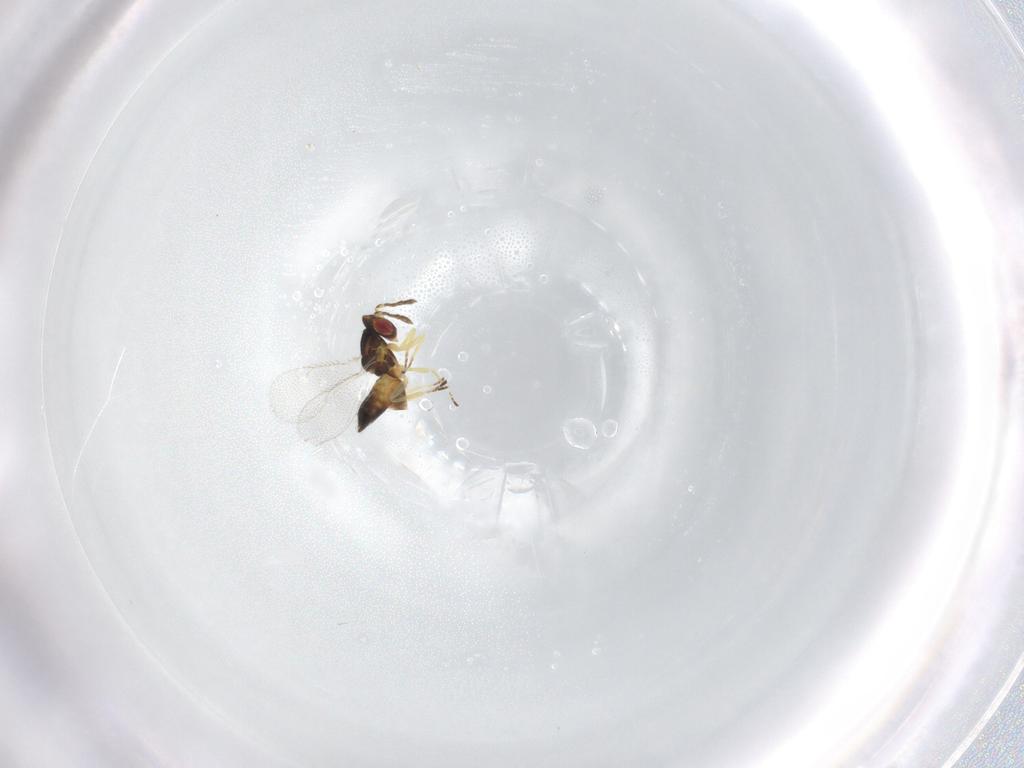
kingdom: Animalia
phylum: Arthropoda
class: Insecta
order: Hymenoptera
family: Eulophidae
